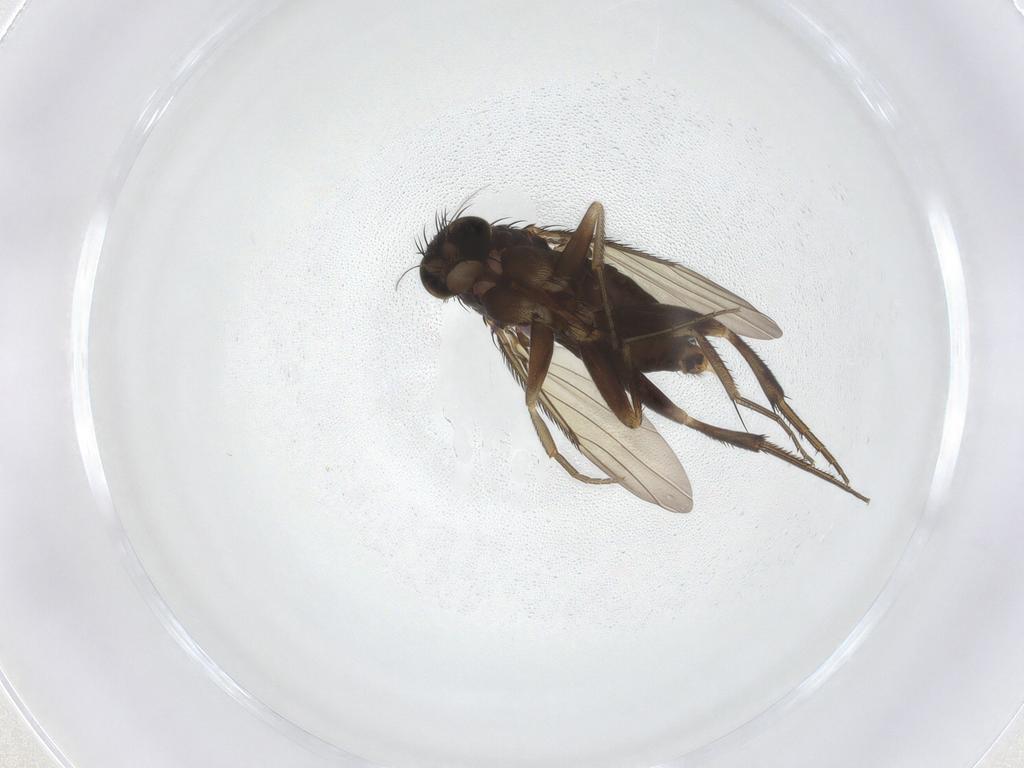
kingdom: Animalia
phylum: Arthropoda
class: Insecta
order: Diptera
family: Phoridae
